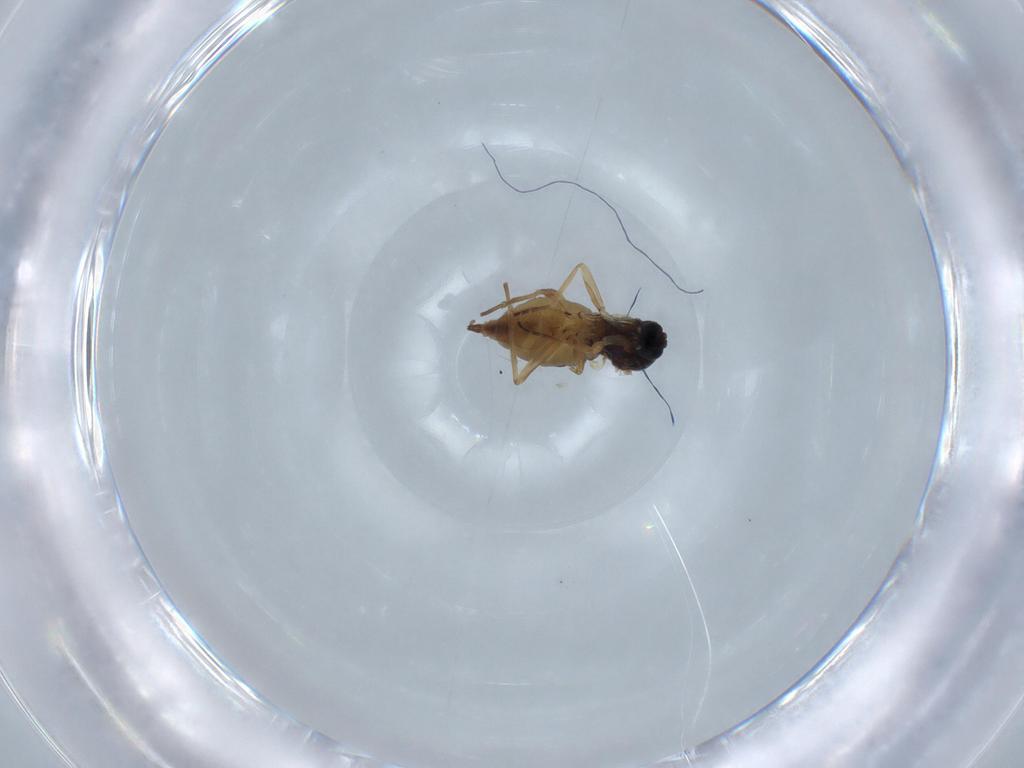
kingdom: Animalia
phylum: Arthropoda
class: Insecta
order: Diptera
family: Sciaridae
